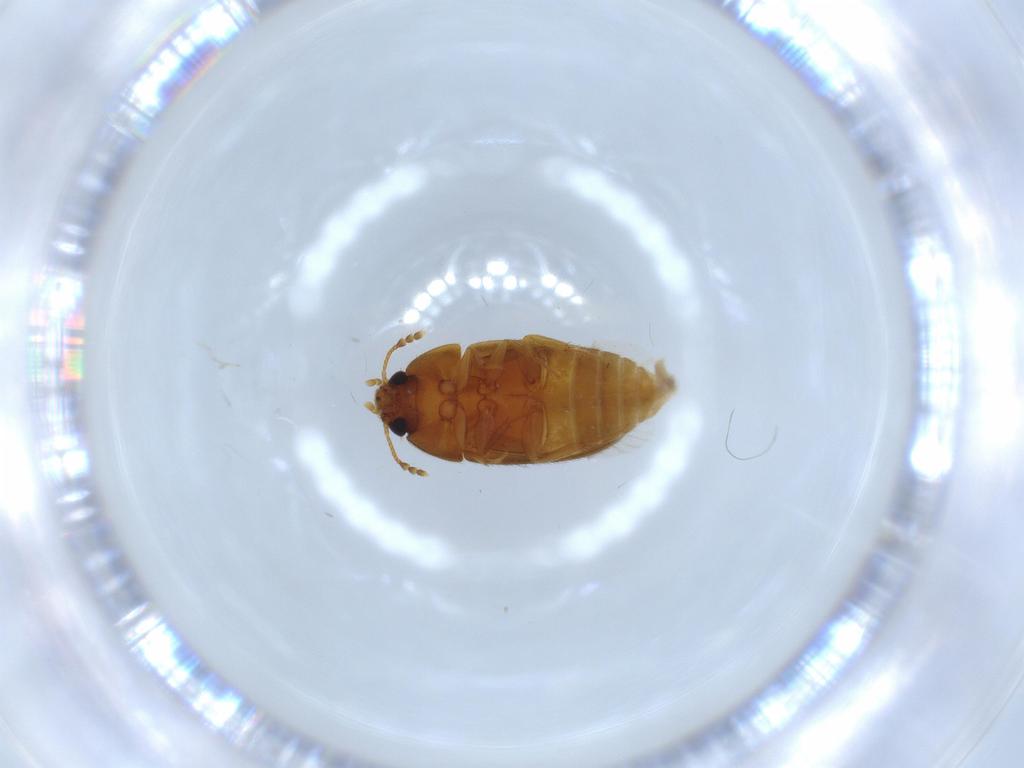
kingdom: Animalia
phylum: Arthropoda
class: Insecta
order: Coleoptera
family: Mycetophagidae
